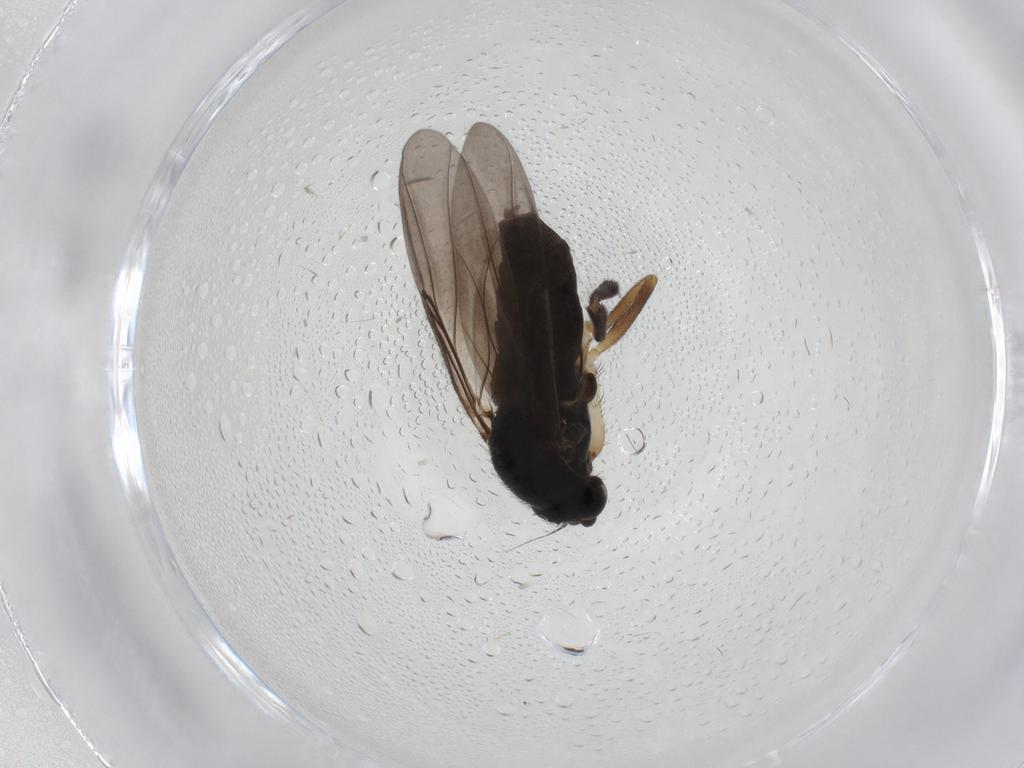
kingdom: Animalia
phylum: Arthropoda
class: Insecta
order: Diptera
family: Phoridae
